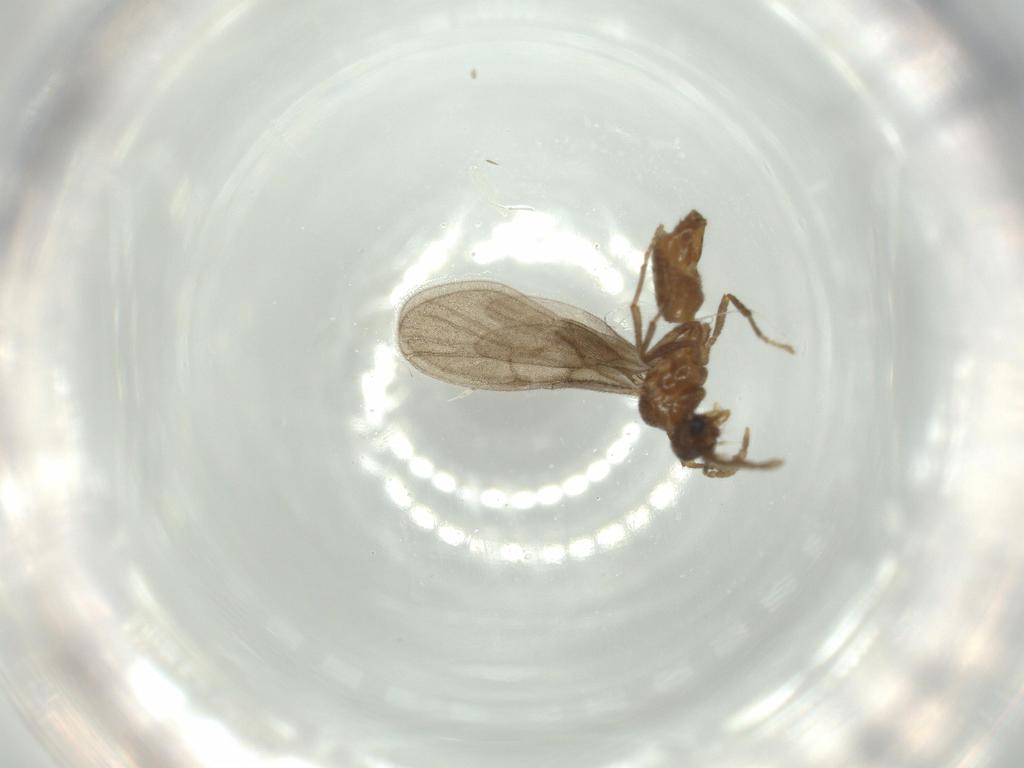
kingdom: Animalia
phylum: Arthropoda
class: Insecta
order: Hymenoptera
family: Formicidae
